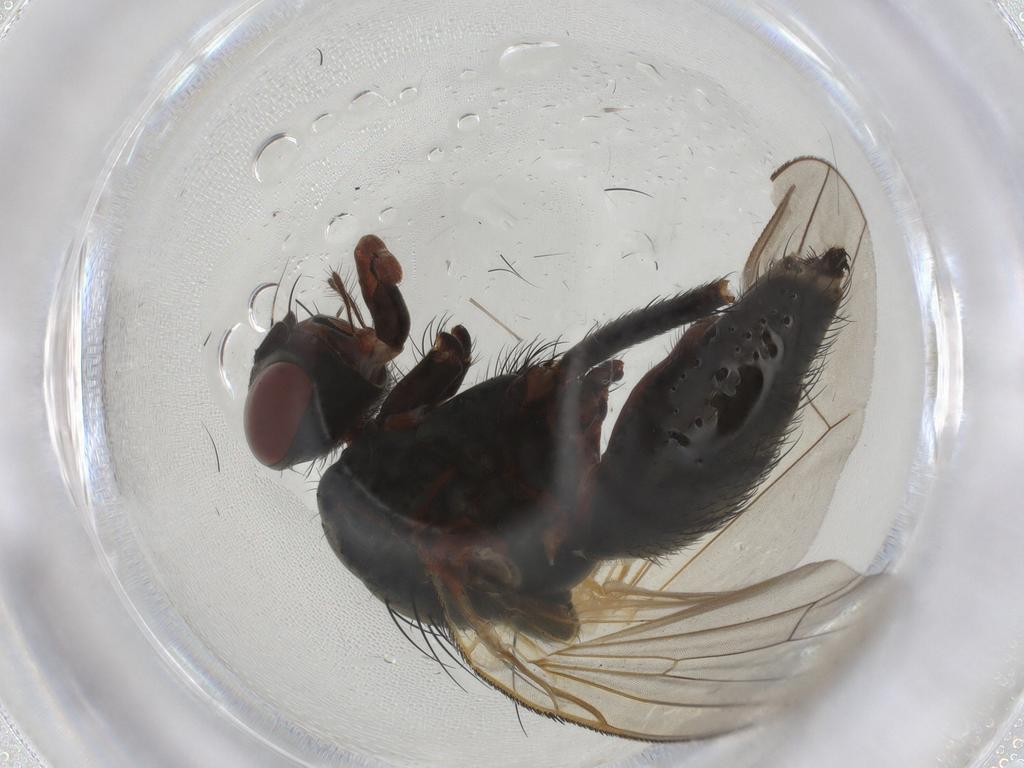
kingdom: Animalia
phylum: Arthropoda
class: Insecta
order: Diptera
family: Anthomyiidae
